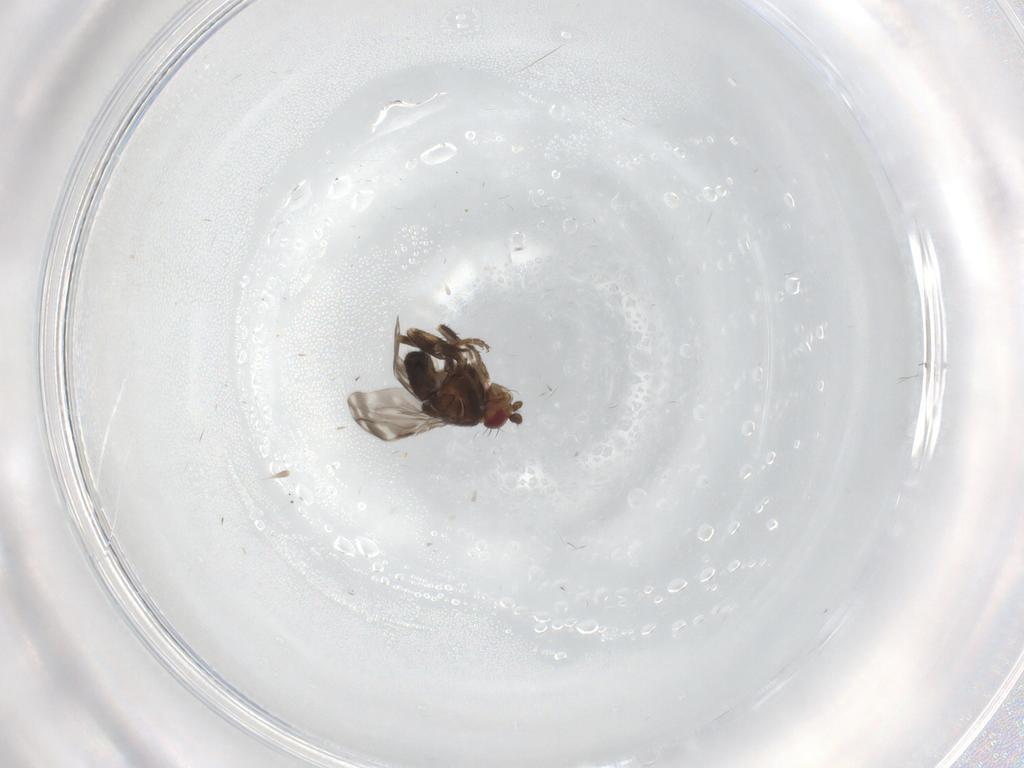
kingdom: Animalia
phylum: Arthropoda
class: Insecta
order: Diptera
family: Sphaeroceridae
